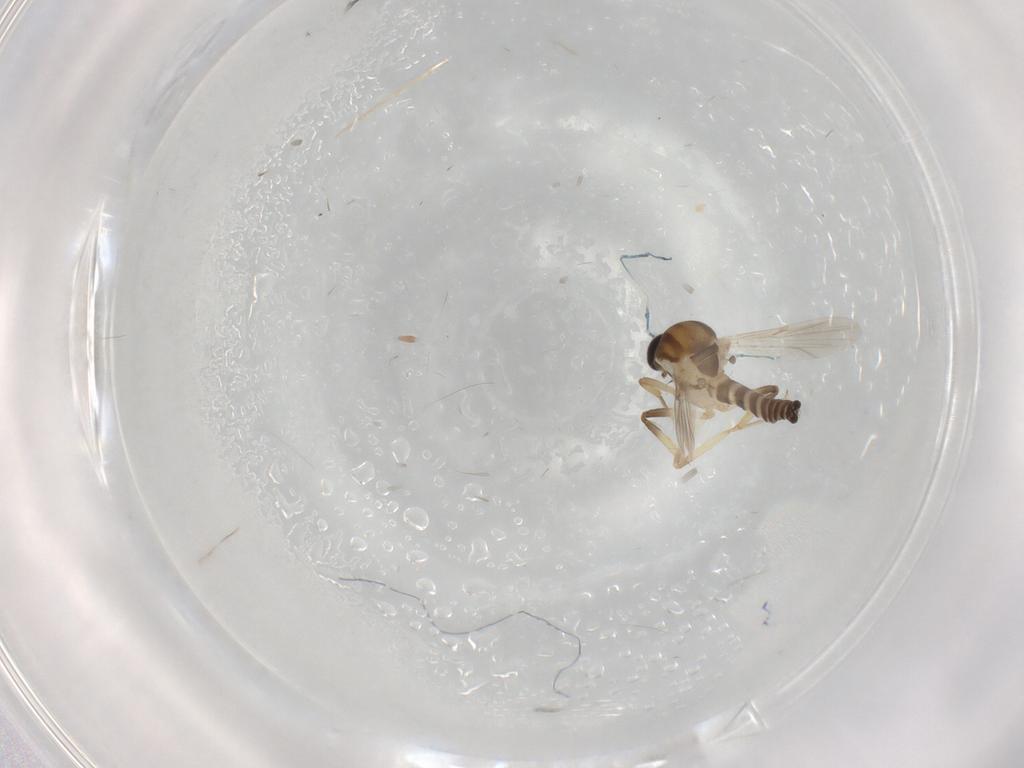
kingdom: Animalia
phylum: Arthropoda
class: Insecta
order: Diptera
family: Ceratopogonidae
